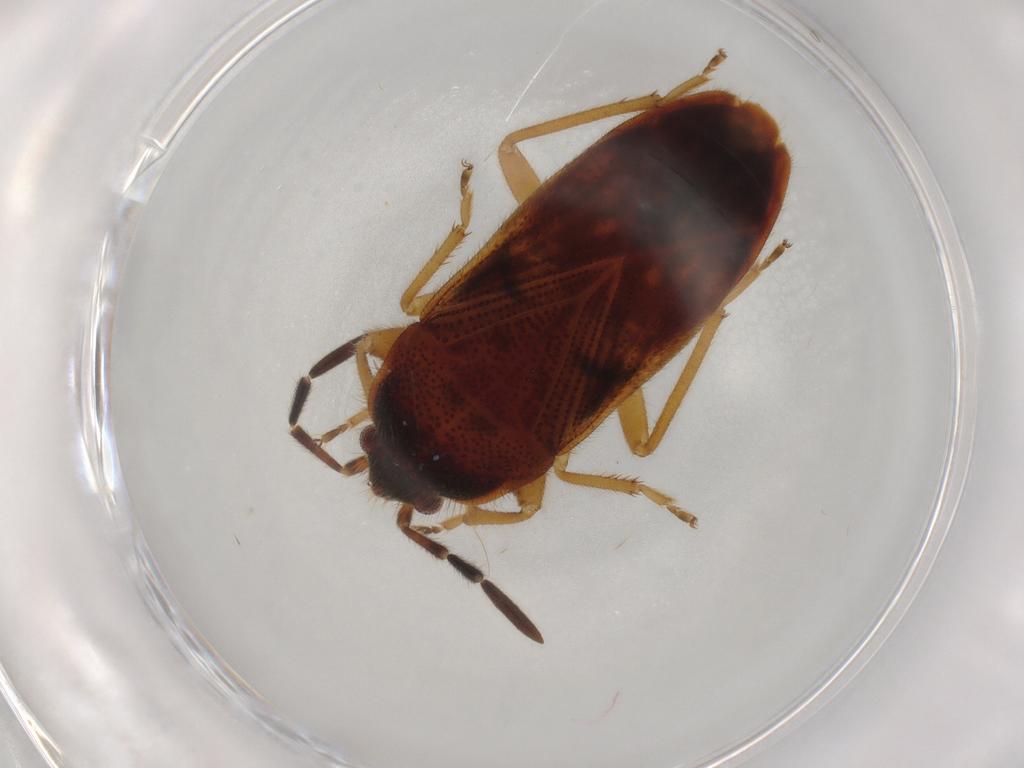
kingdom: Animalia
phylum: Arthropoda
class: Insecta
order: Hemiptera
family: Rhyparochromidae
